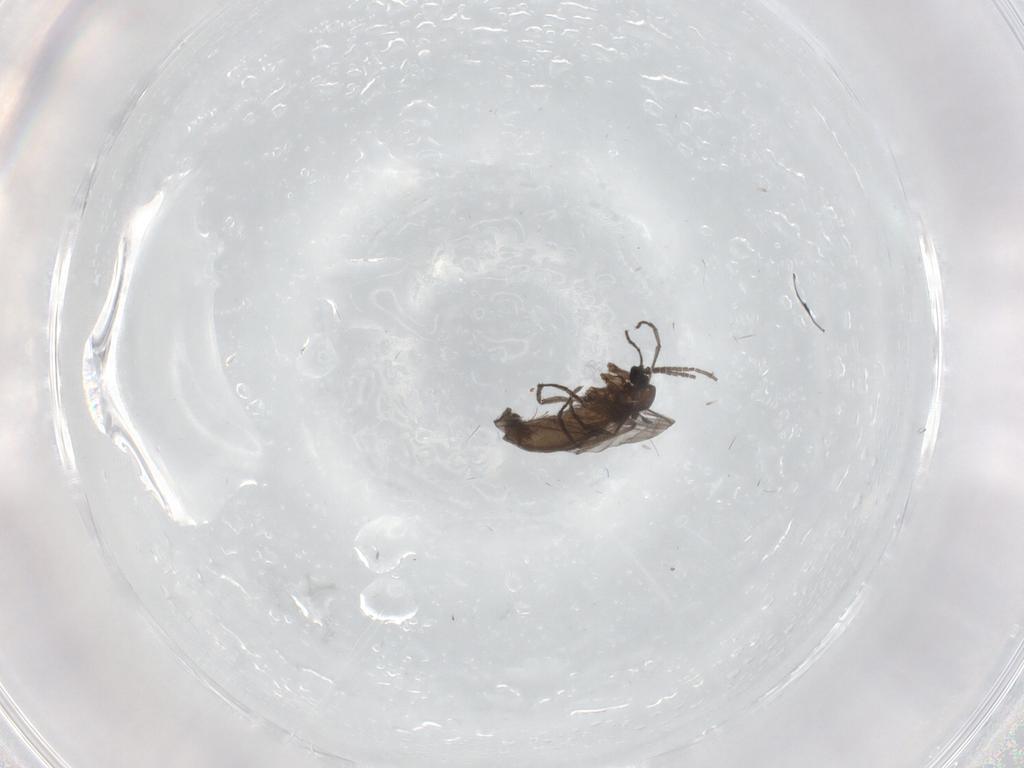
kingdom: Animalia
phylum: Arthropoda
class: Insecta
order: Diptera
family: Sciaridae
